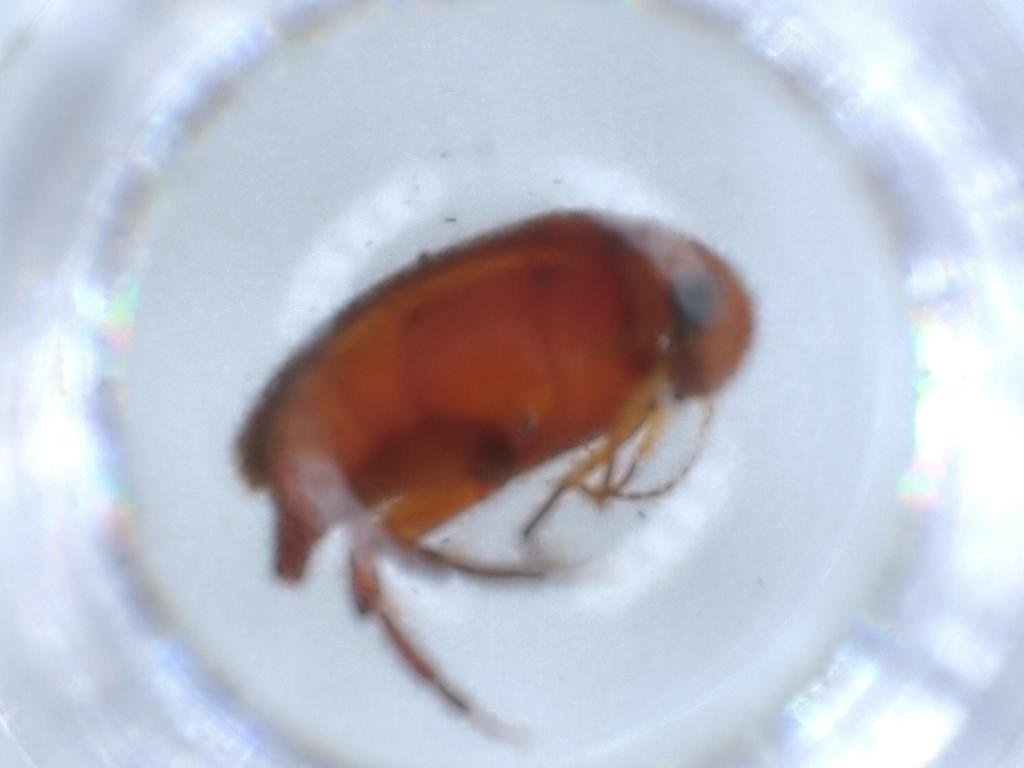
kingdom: Animalia
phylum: Arthropoda
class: Insecta
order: Coleoptera
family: Mordellidae
